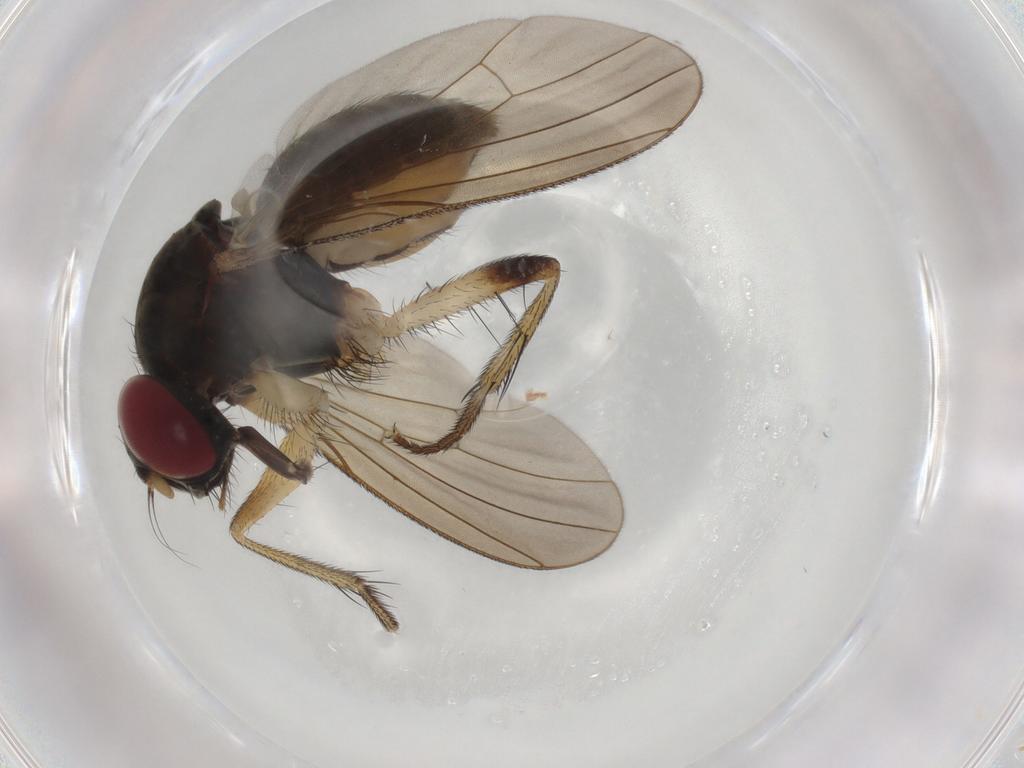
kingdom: Animalia
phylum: Arthropoda
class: Insecta
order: Diptera
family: Muscidae
